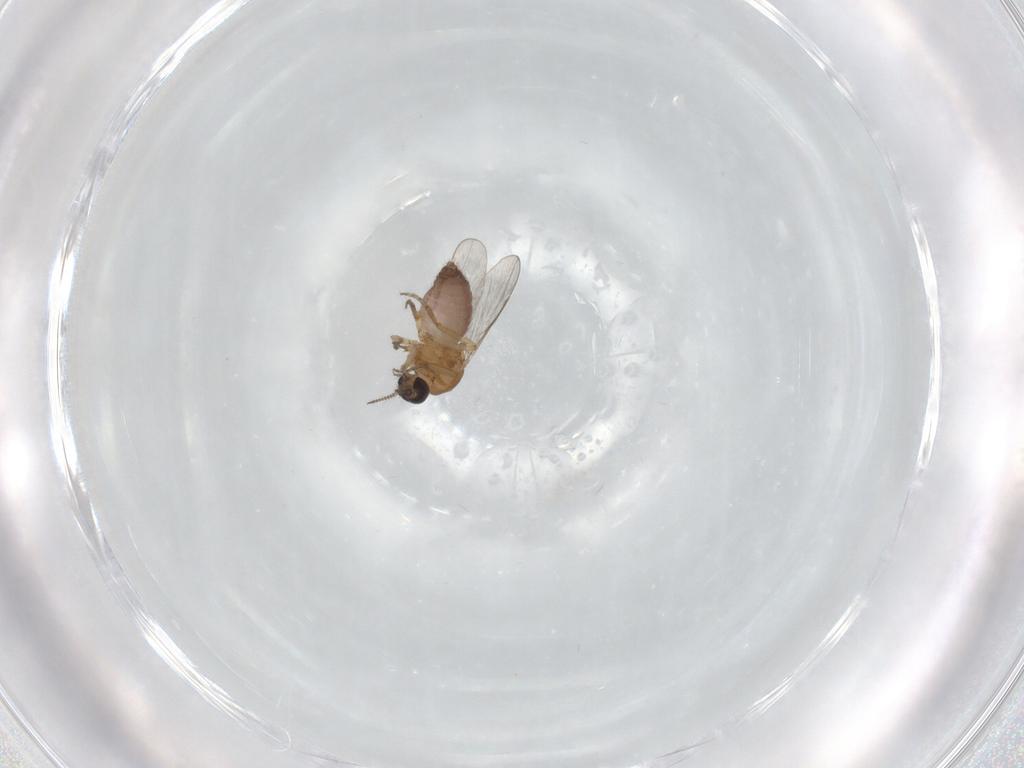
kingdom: Animalia
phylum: Arthropoda
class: Insecta
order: Diptera
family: Ceratopogonidae
